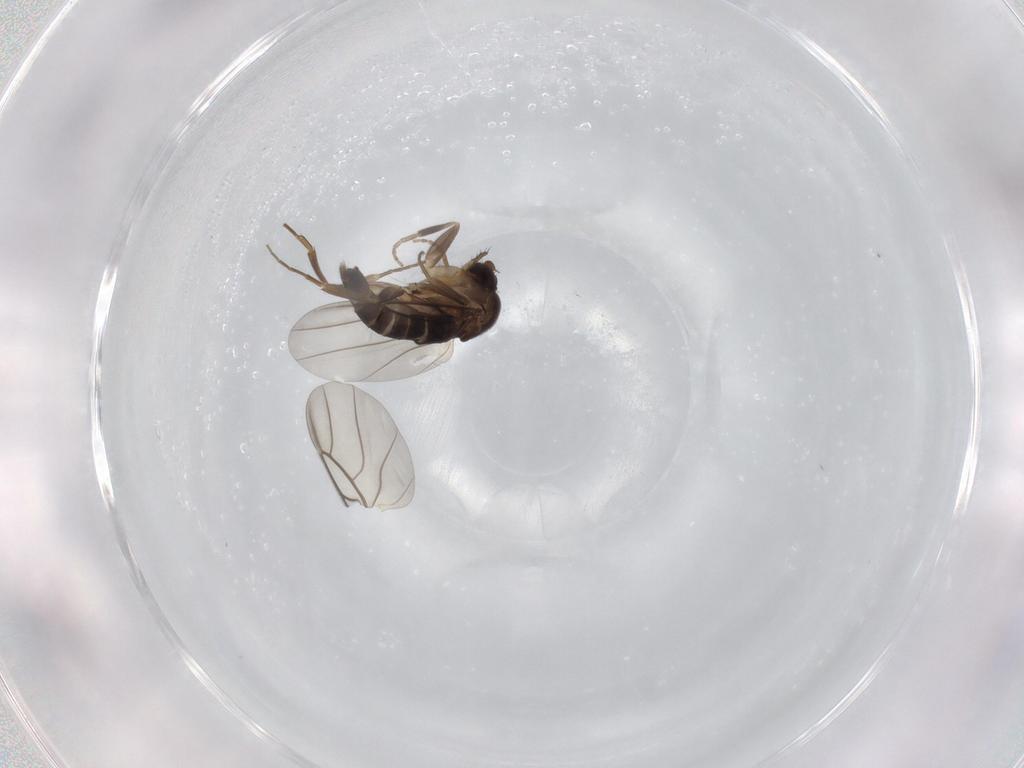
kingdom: Animalia
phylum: Arthropoda
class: Insecta
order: Diptera
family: Phoridae
